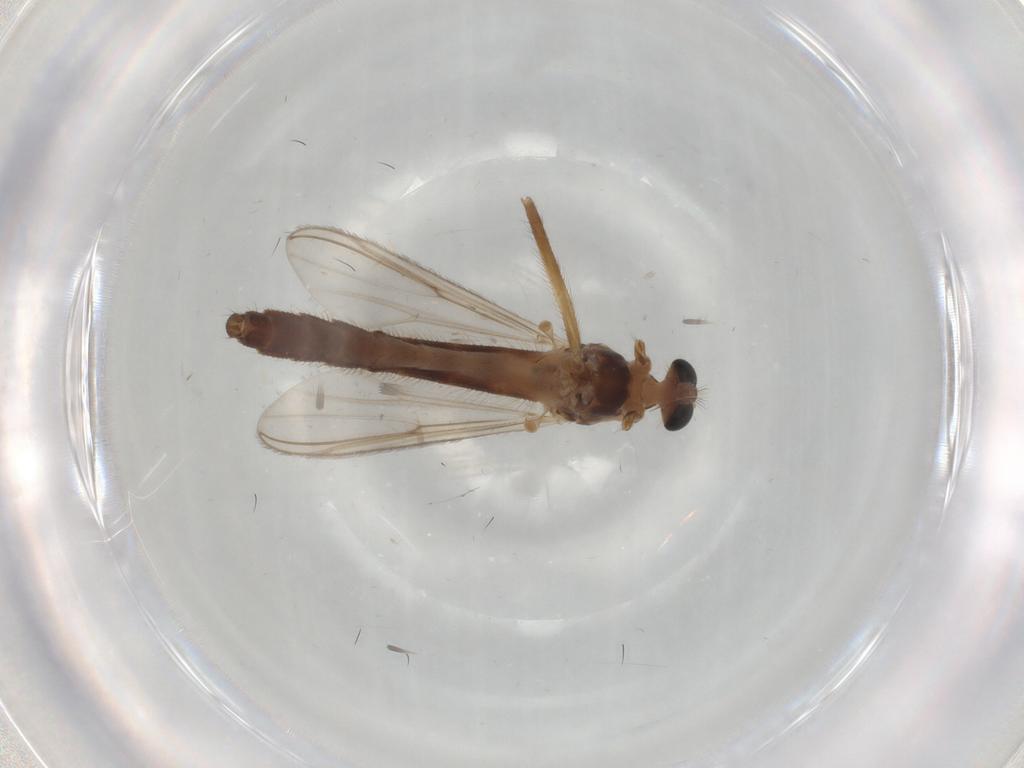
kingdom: Animalia
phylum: Arthropoda
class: Insecta
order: Diptera
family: Chironomidae
